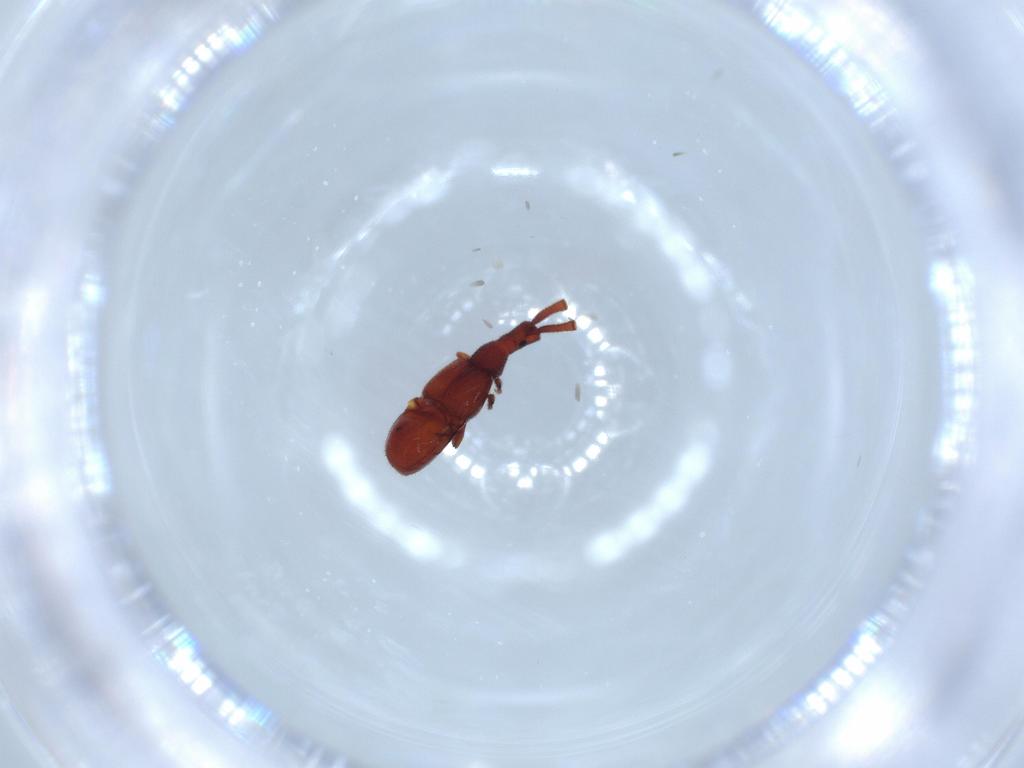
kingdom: Animalia
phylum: Arthropoda
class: Insecta
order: Coleoptera
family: Staphylinidae
